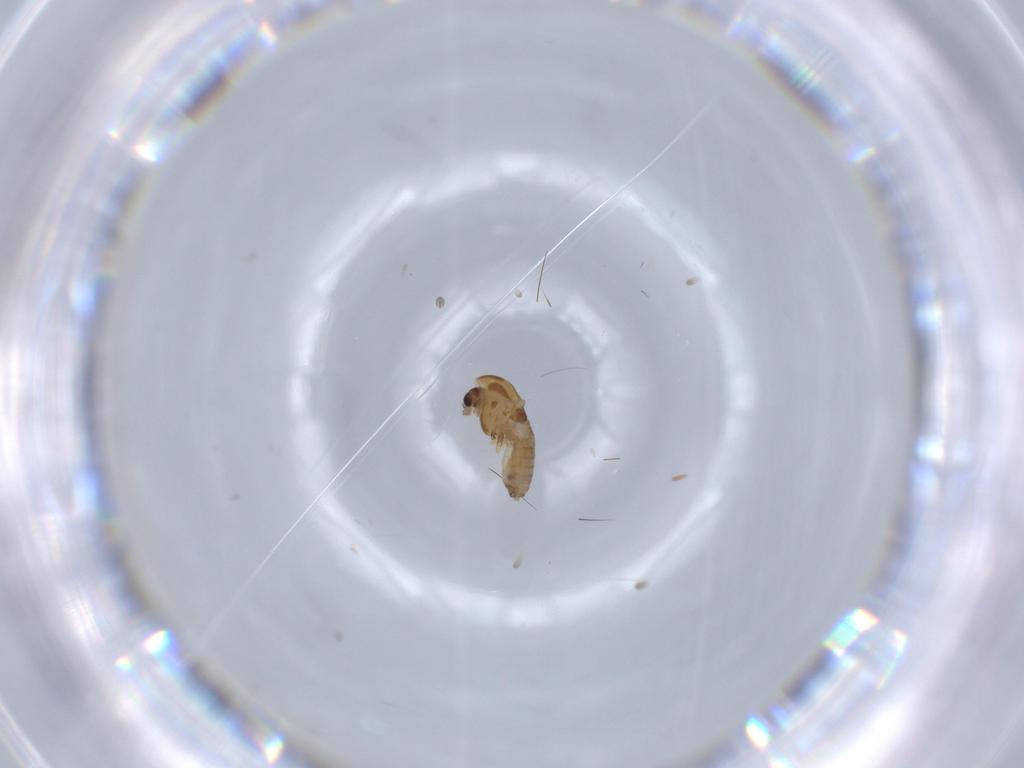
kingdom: Animalia
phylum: Arthropoda
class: Insecta
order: Diptera
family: Chironomidae
